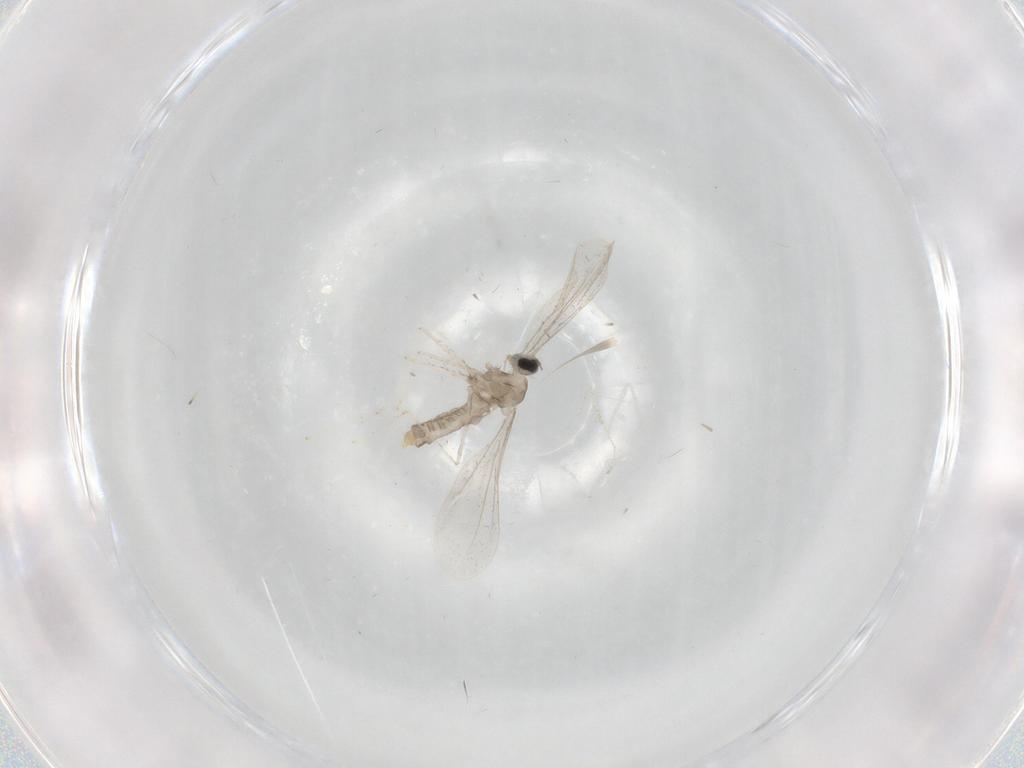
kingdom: Animalia
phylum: Arthropoda
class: Insecta
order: Diptera
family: Cecidomyiidae
